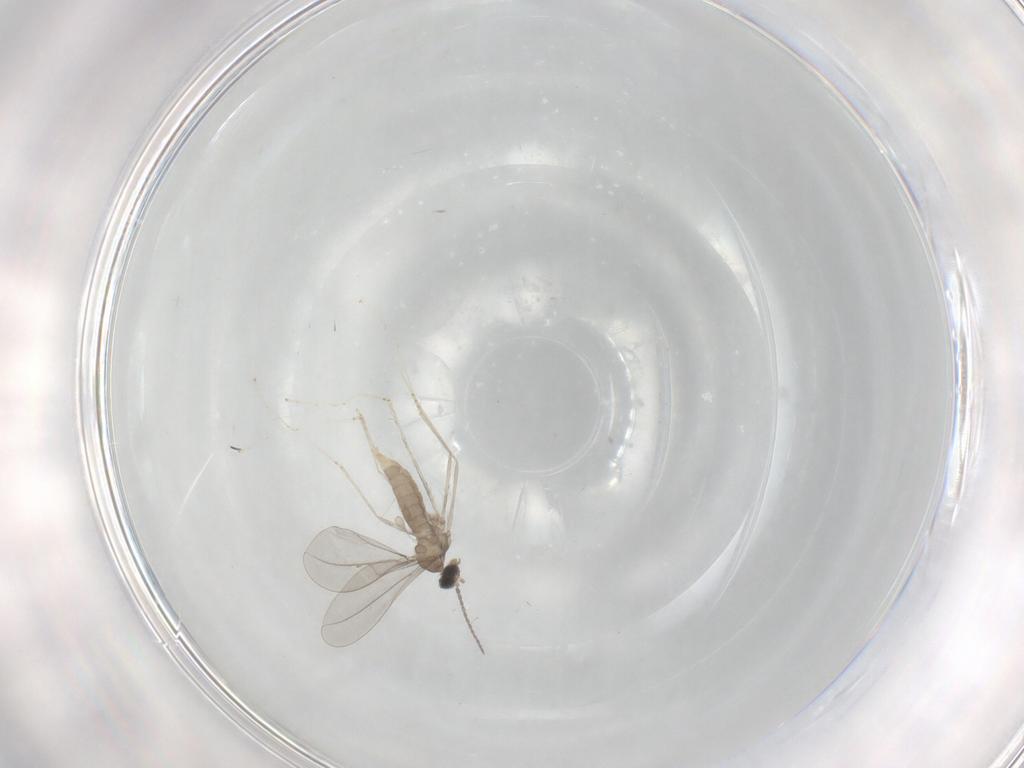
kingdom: Animalia
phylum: Arthropoda
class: Insecta
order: Diptera
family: Cecidomyiidae
